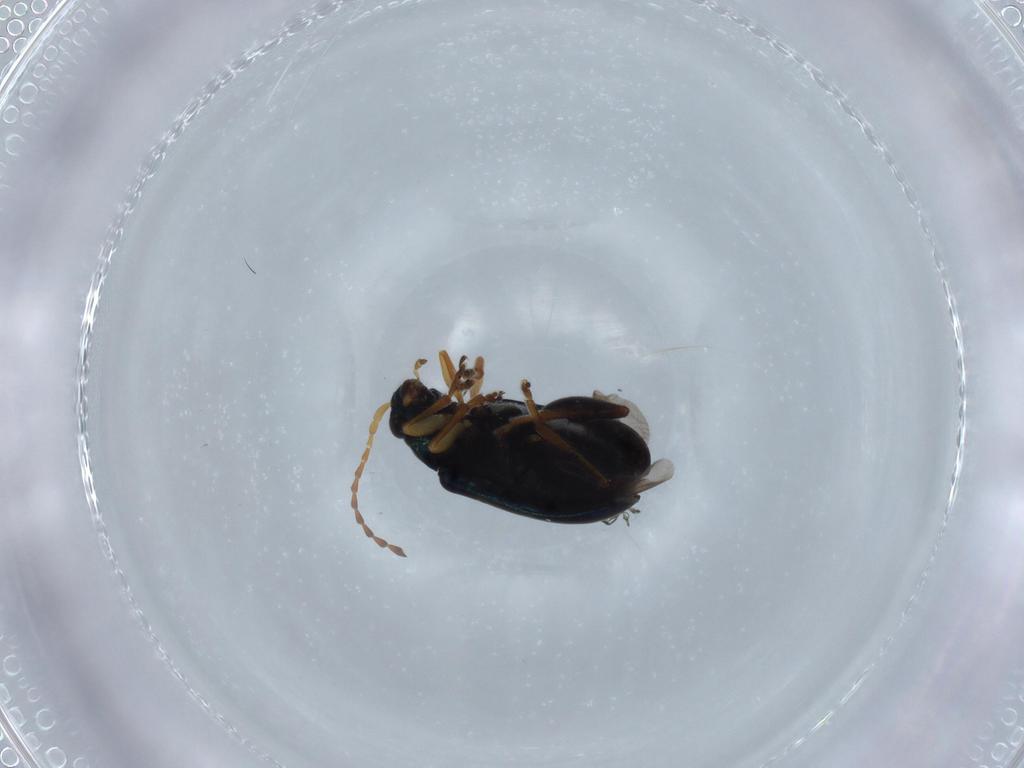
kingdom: Animalia
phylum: Arthropoda
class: Insecta
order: Coleoptera
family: Chrysomelidae
